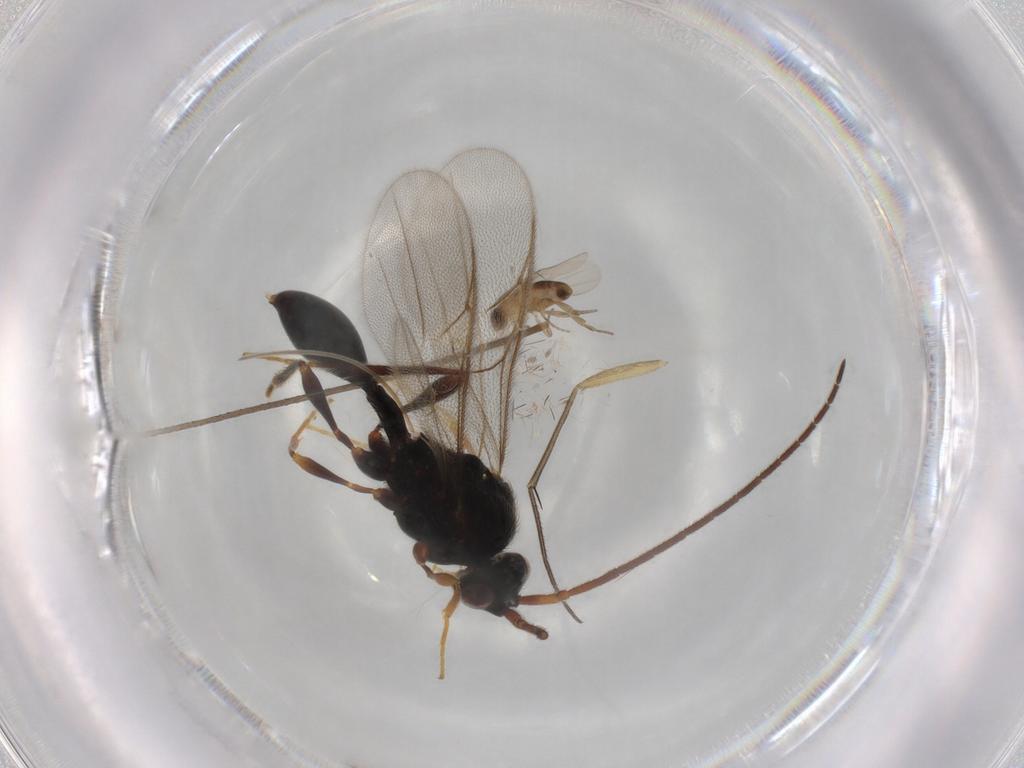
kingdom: Animalia
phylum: Arthropoda
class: Insecta
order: Diptera
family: Phoridae
